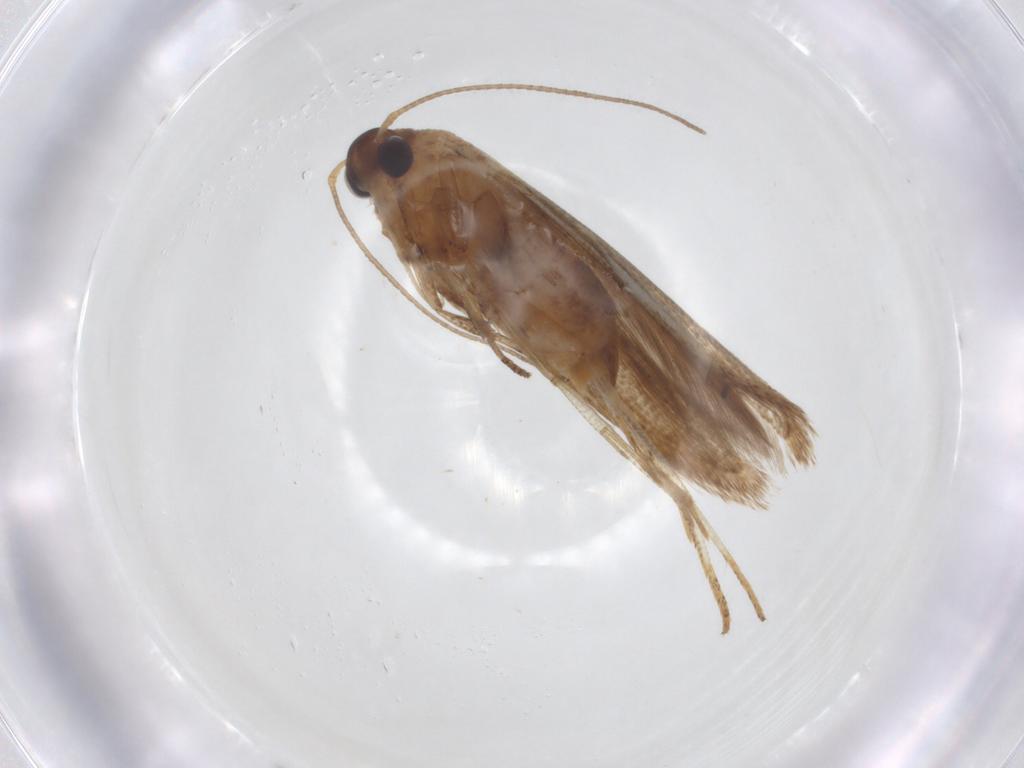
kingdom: Animalia
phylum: Arthropoda
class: Insecta
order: Lepidoptera
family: Blastobasidae
